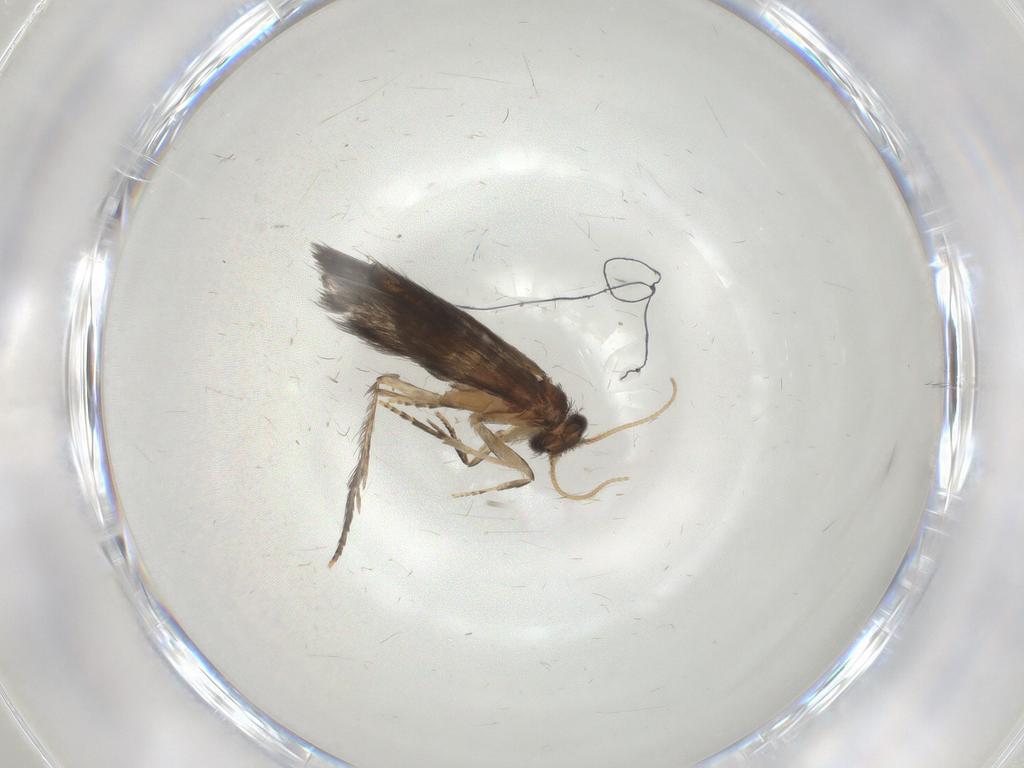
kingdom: Animalia
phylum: Arthropoda
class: Insecta
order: Trichoptera
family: Hydroptilidae
